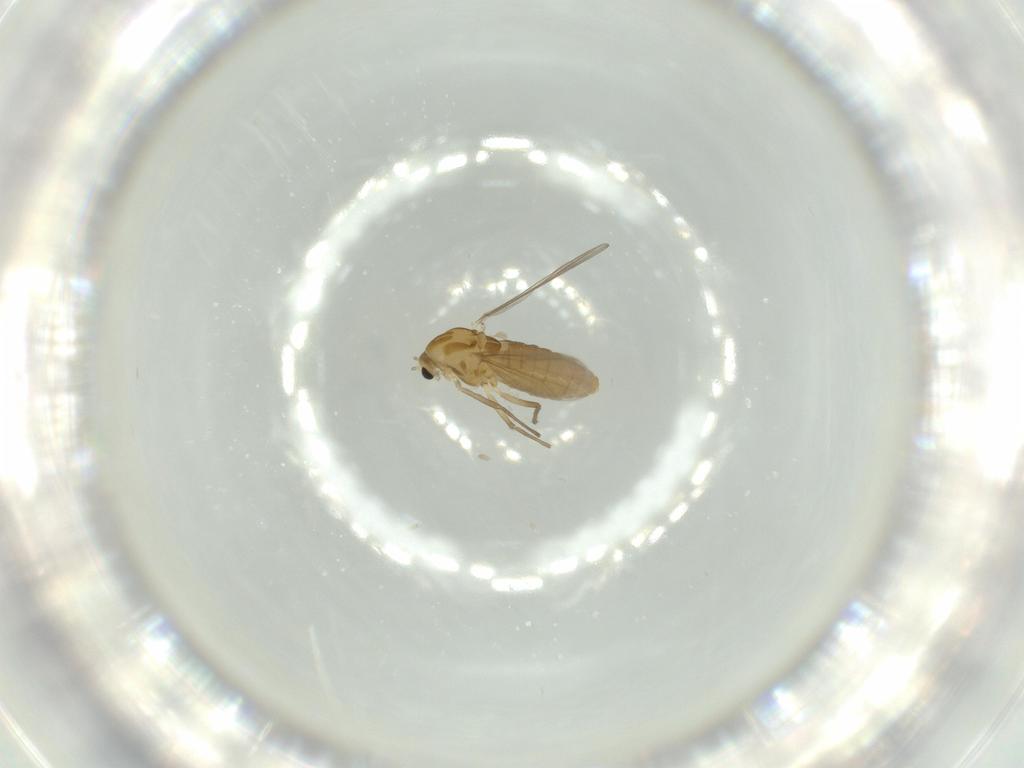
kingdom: Animalia
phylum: Arthropoda
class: Insecta
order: Diptera
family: Chironomidae
